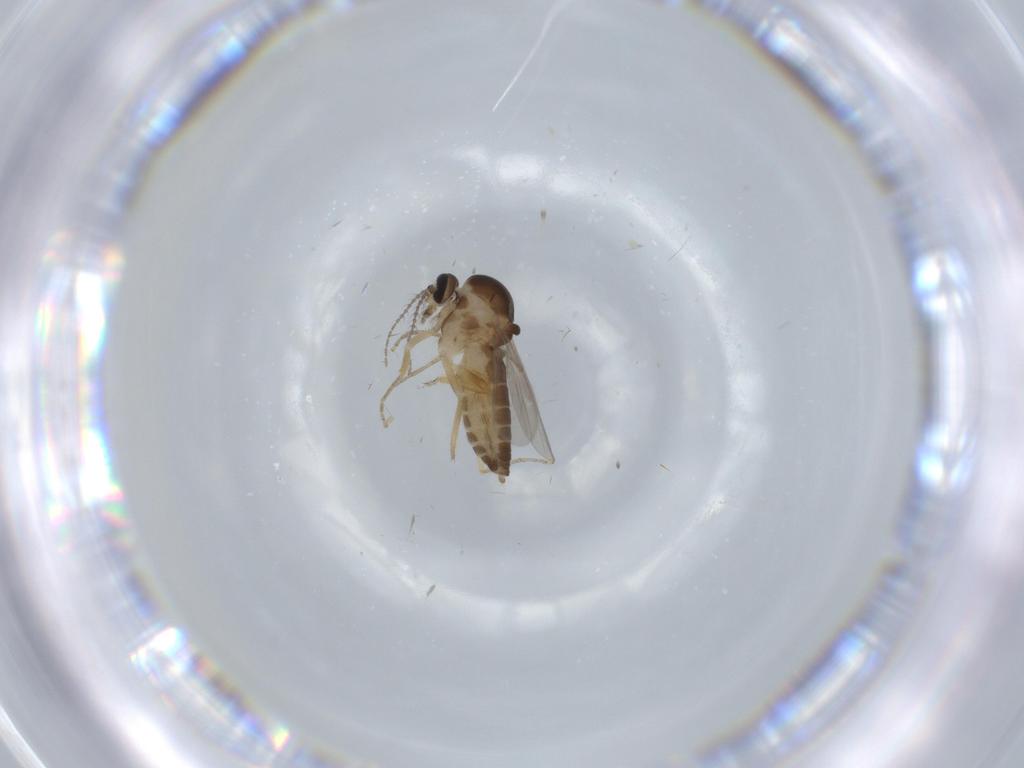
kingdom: Animalia
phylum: Arthropoda
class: Insecta
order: Diptera
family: Ceratopogonidae
